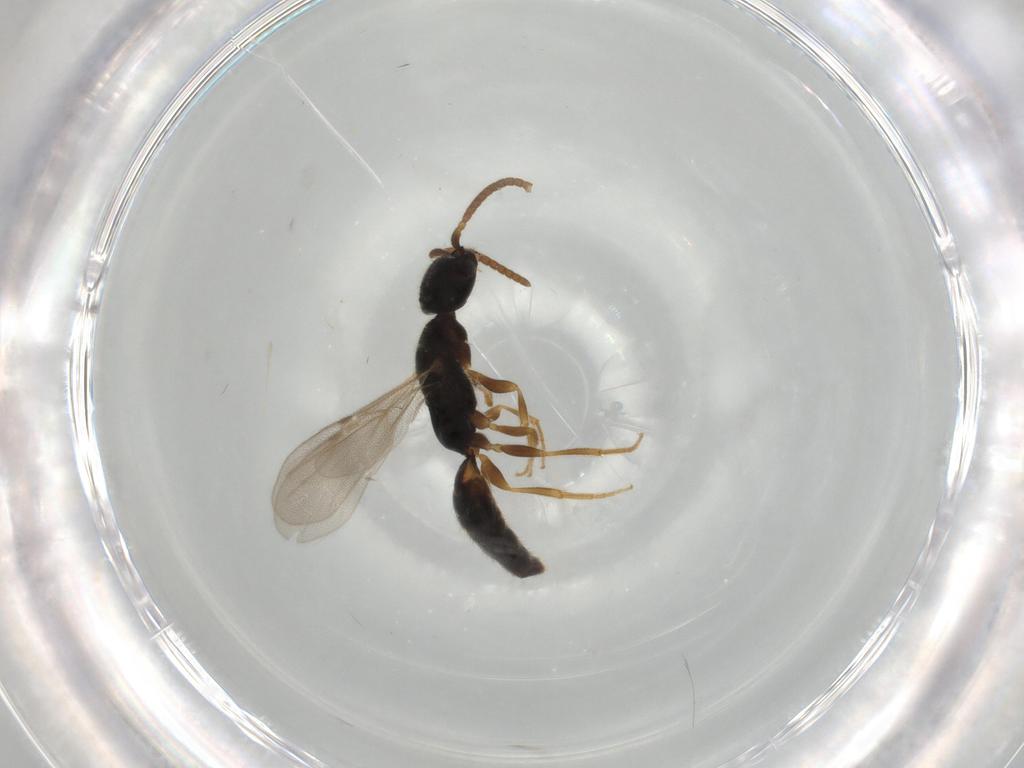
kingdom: Animalia
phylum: Arthropoda
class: Insecta
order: Hymenoptera
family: Bethylidae
